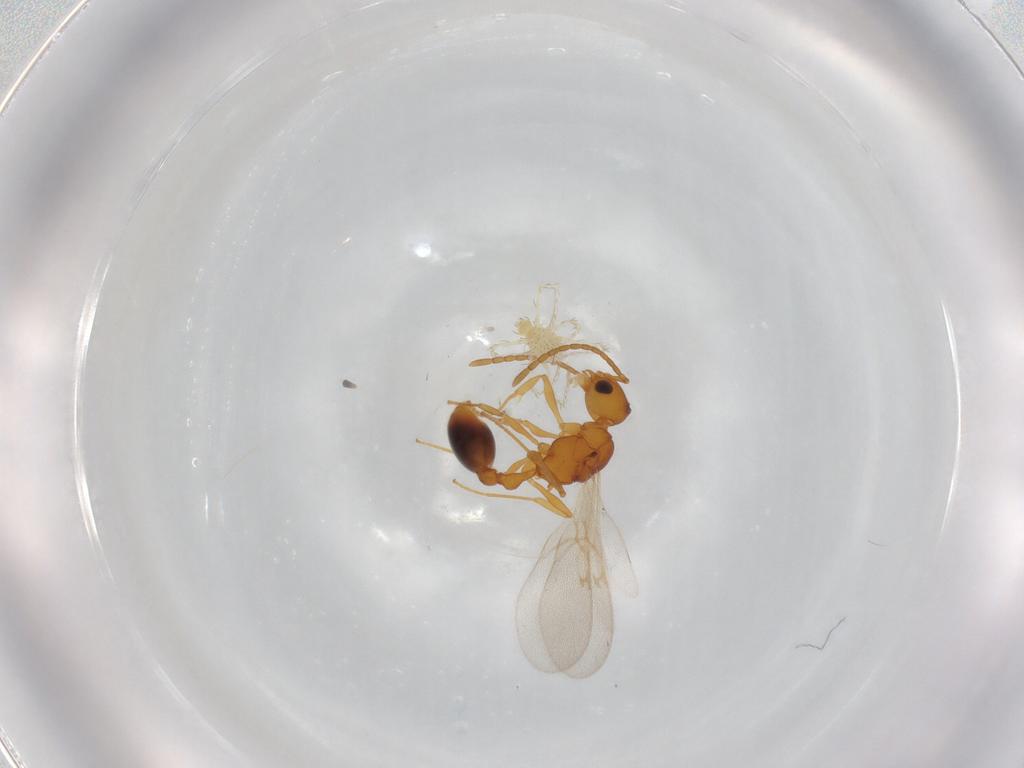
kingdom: Animalia
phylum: Arthropoda
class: Insecta
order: Hymenoptera
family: Formicidae
